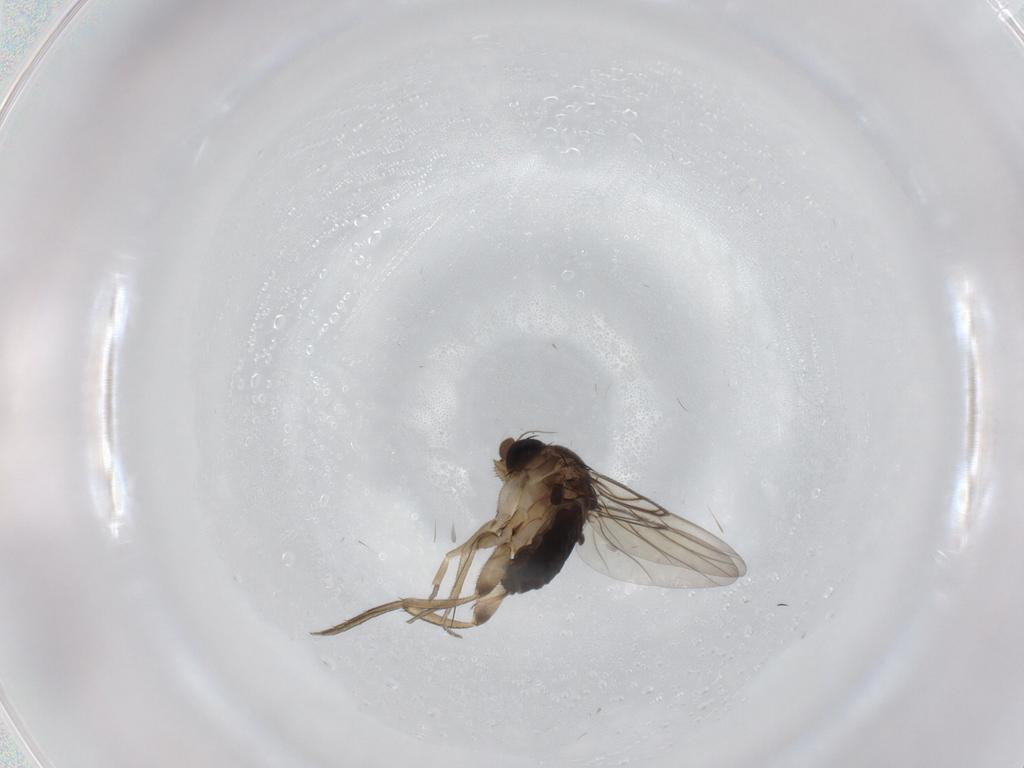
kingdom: Animalia
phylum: Arthropoda
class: Insecta
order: Diptera
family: Phoridae
